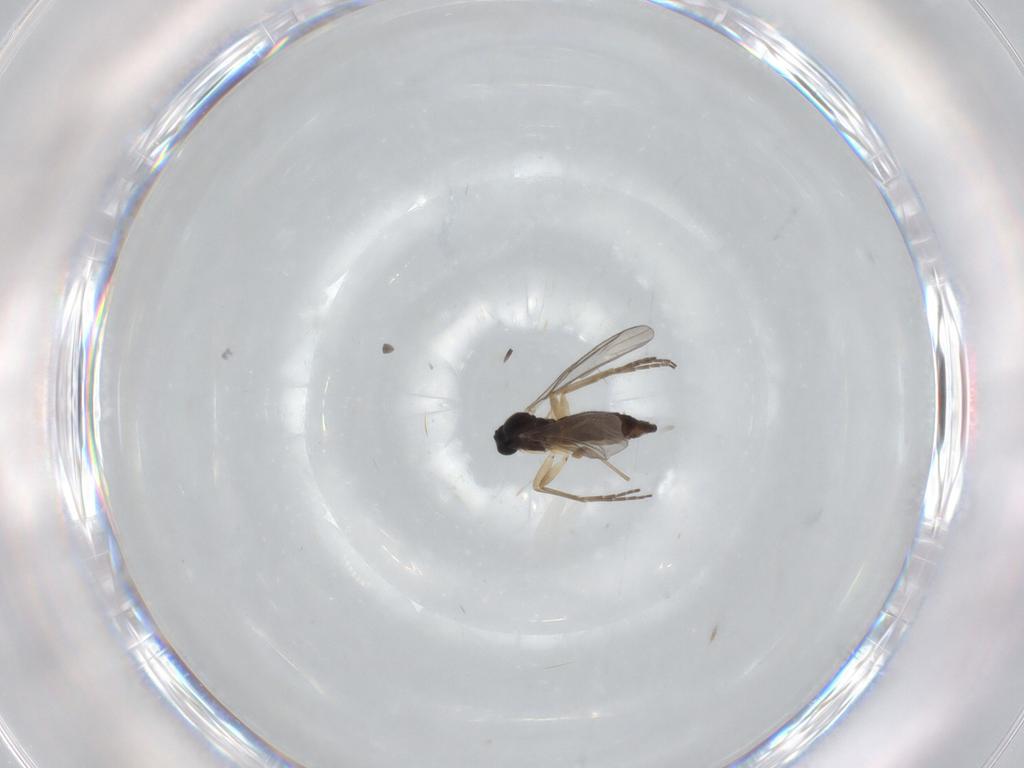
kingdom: Animalia
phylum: Arthropoda
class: Insecta
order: Diptera
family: Sciaridae
